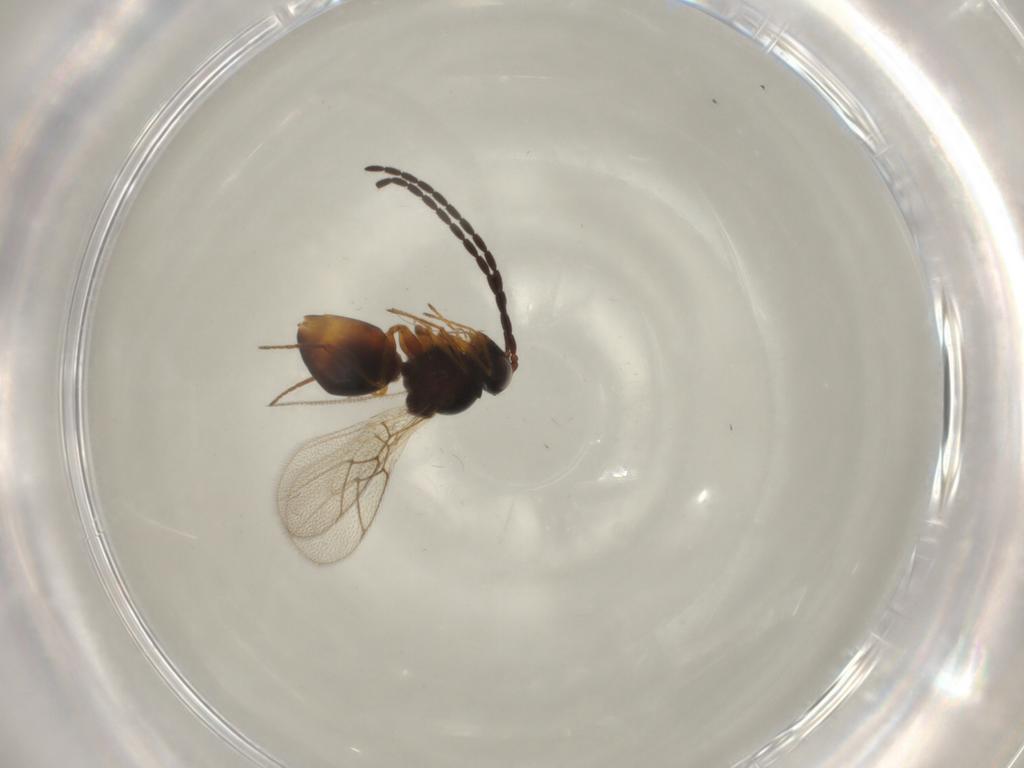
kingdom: Animalia
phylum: Arthropoda
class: Insecta
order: Hymenoptera
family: Figitidae
